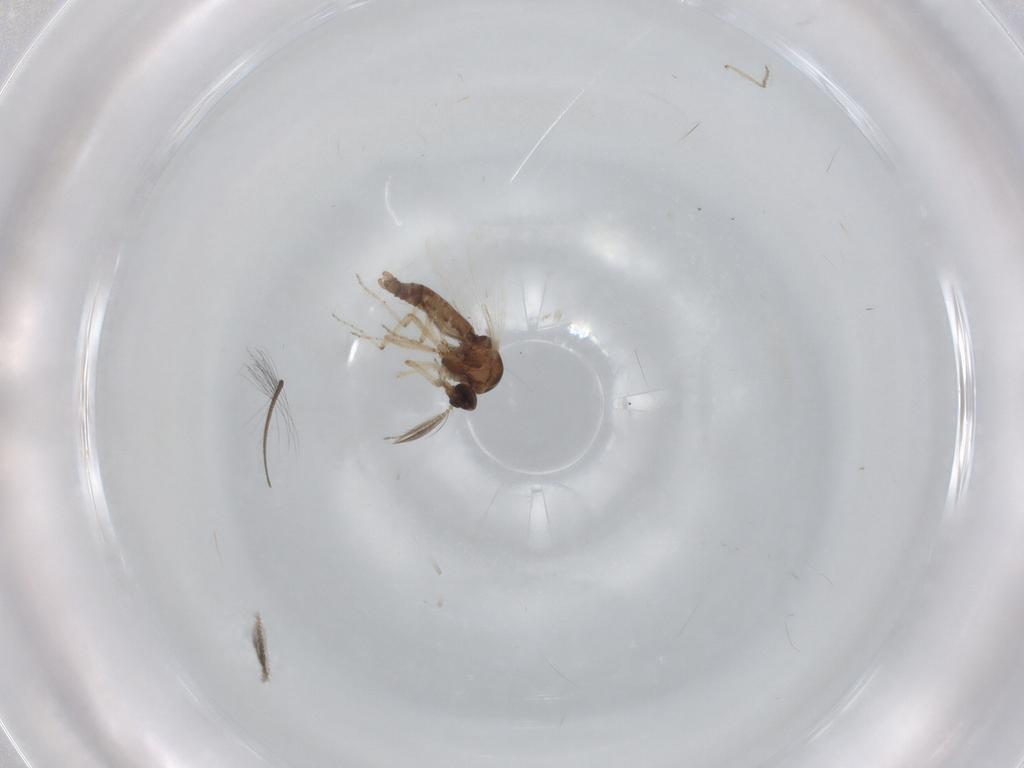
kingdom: Animalia
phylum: Arthropoda
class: Insecta
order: Diptera
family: Ceratopogonidae
